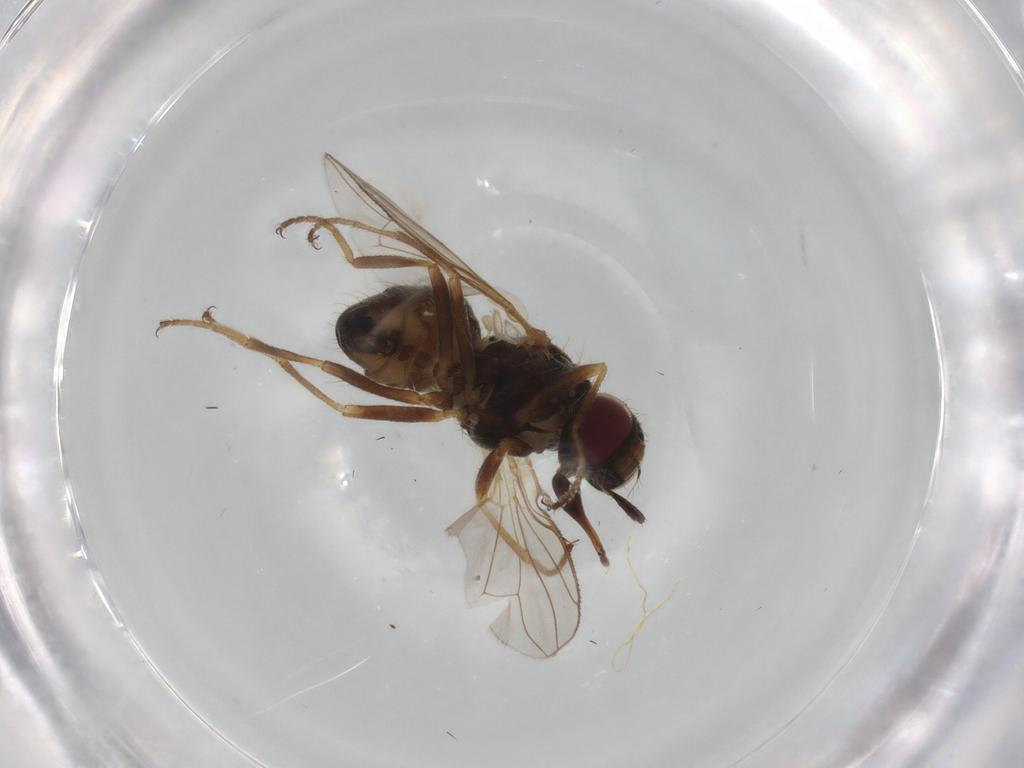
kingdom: Animalia
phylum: Arthropoda
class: Insecta
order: Diptera
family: Muscidae
